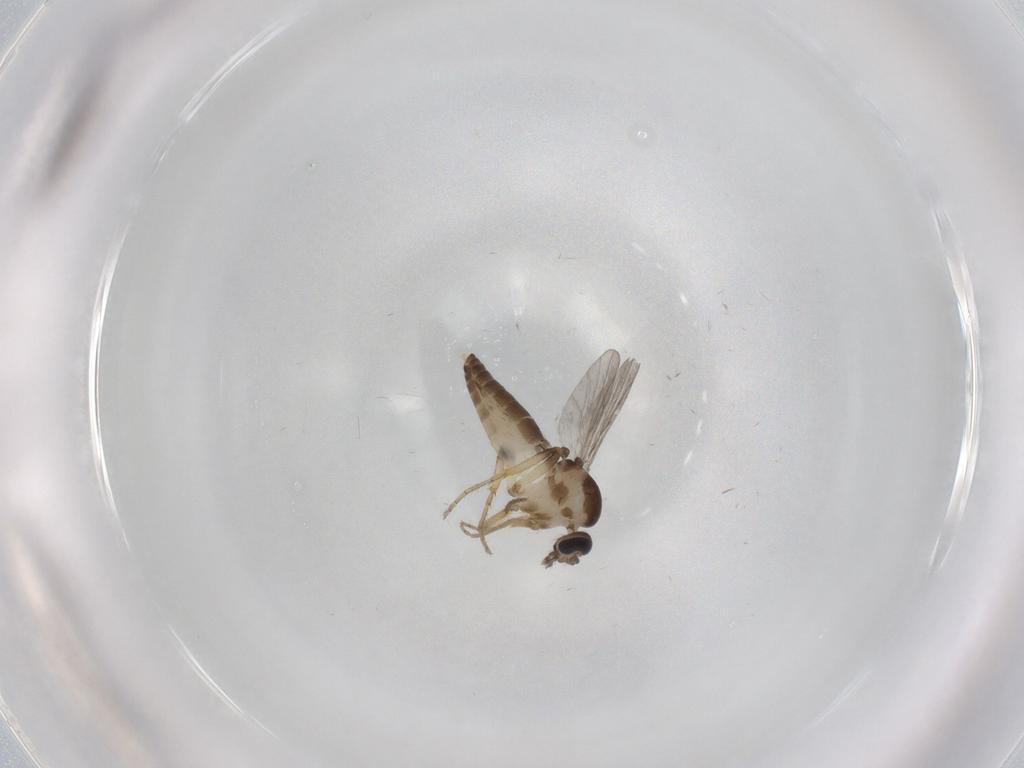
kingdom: Animalia
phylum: Arthropoda
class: Insecta
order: Diptera
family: Ceratopogonidae
